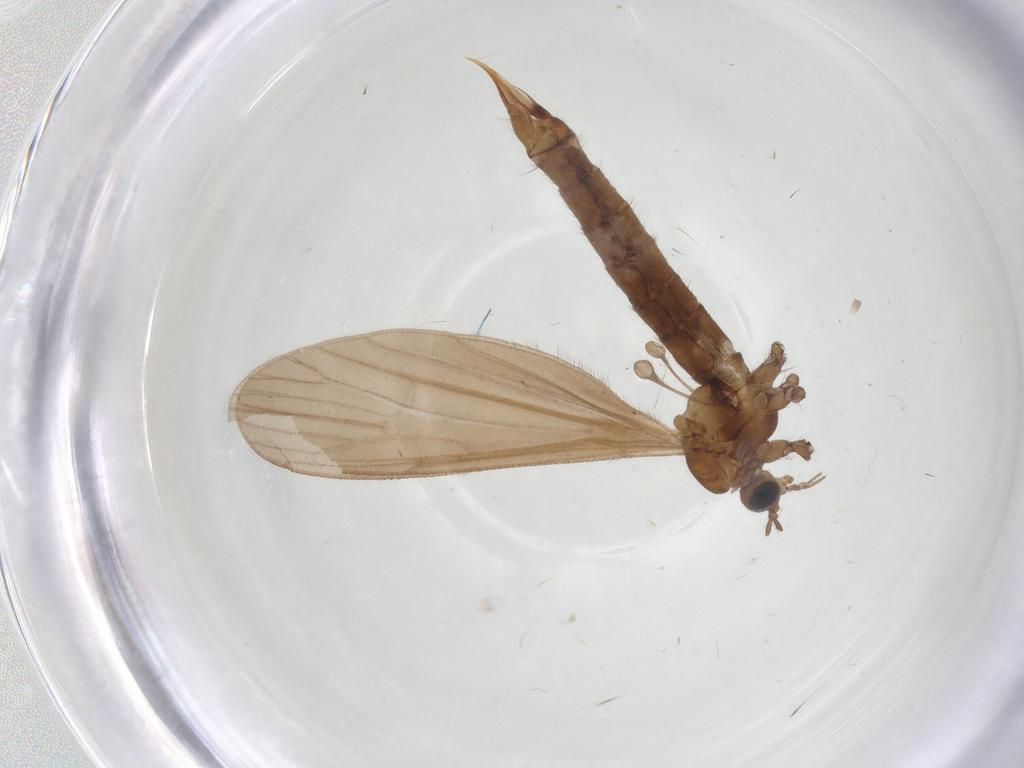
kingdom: Animalia
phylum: Arthropoda
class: Insecta
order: Diptera
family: Limoniidae
